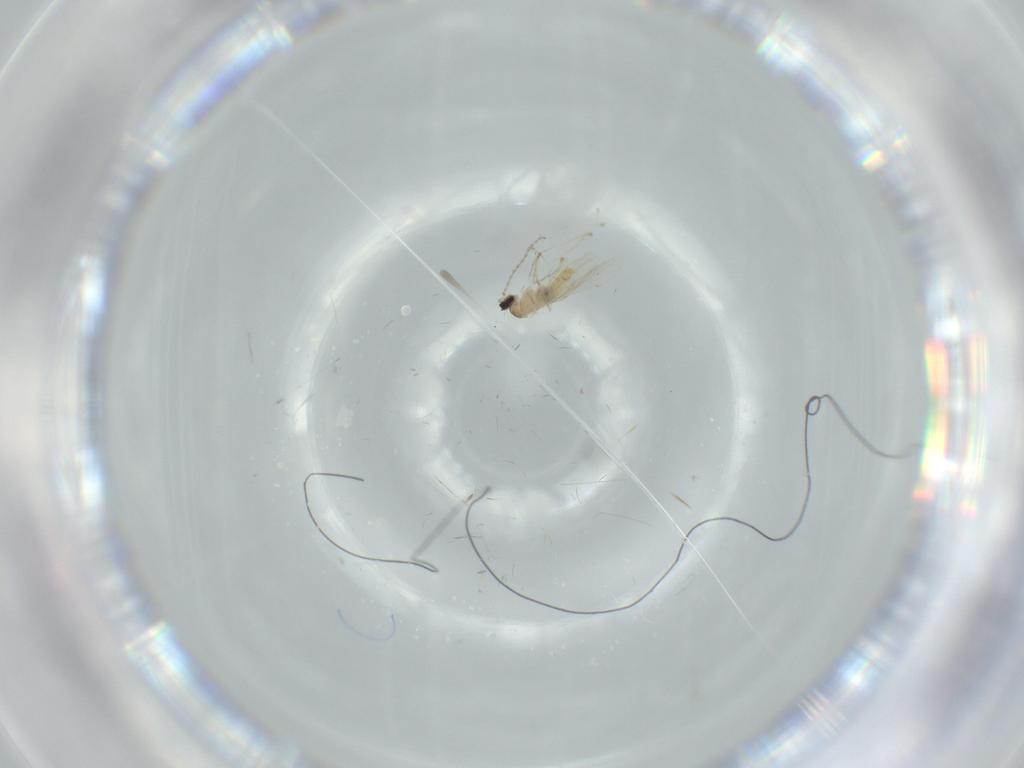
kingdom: Animalia
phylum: Arthropoda
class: Insecta
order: Diptera
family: Cecidomyiidae
